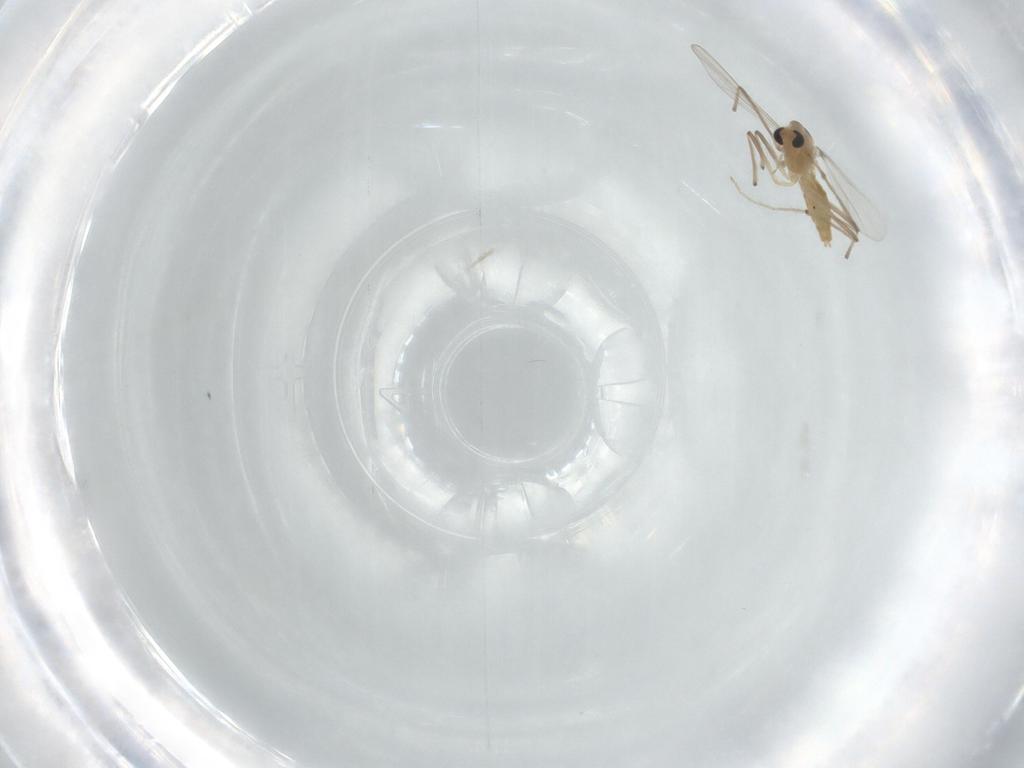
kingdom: Animalia
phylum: Arthropoda
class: Insecta
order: Diptera
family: Chironomidae
